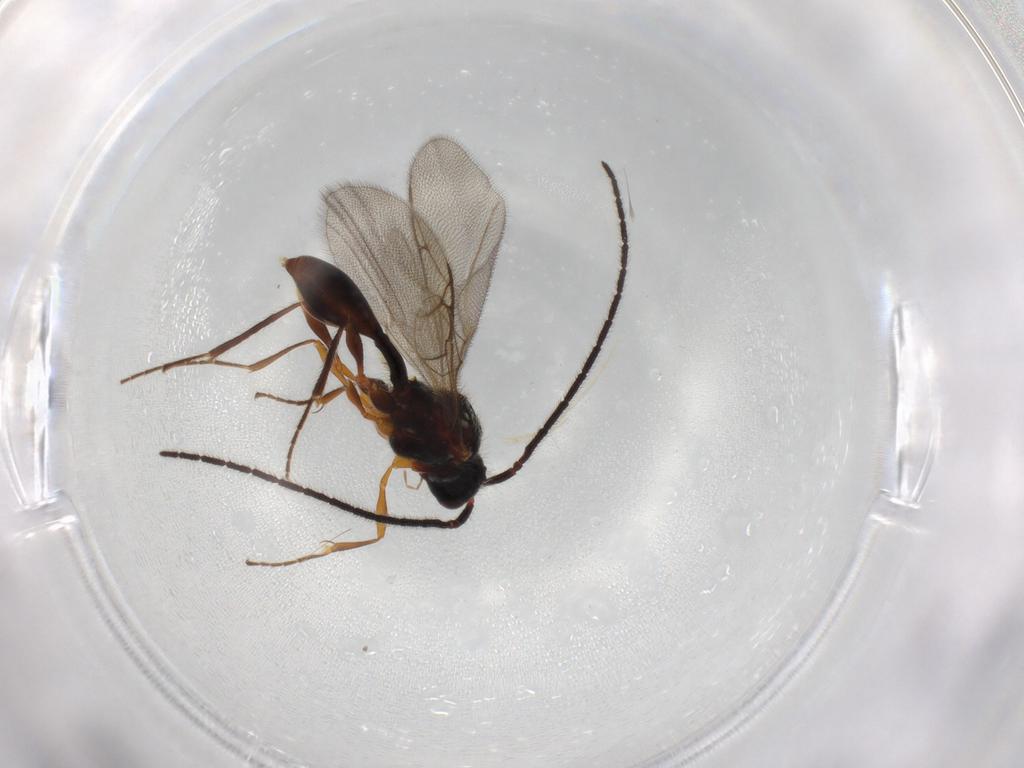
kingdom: Animalia
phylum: Arthropoda
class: Insecta
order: Hymenoptera
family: Diapriidae
